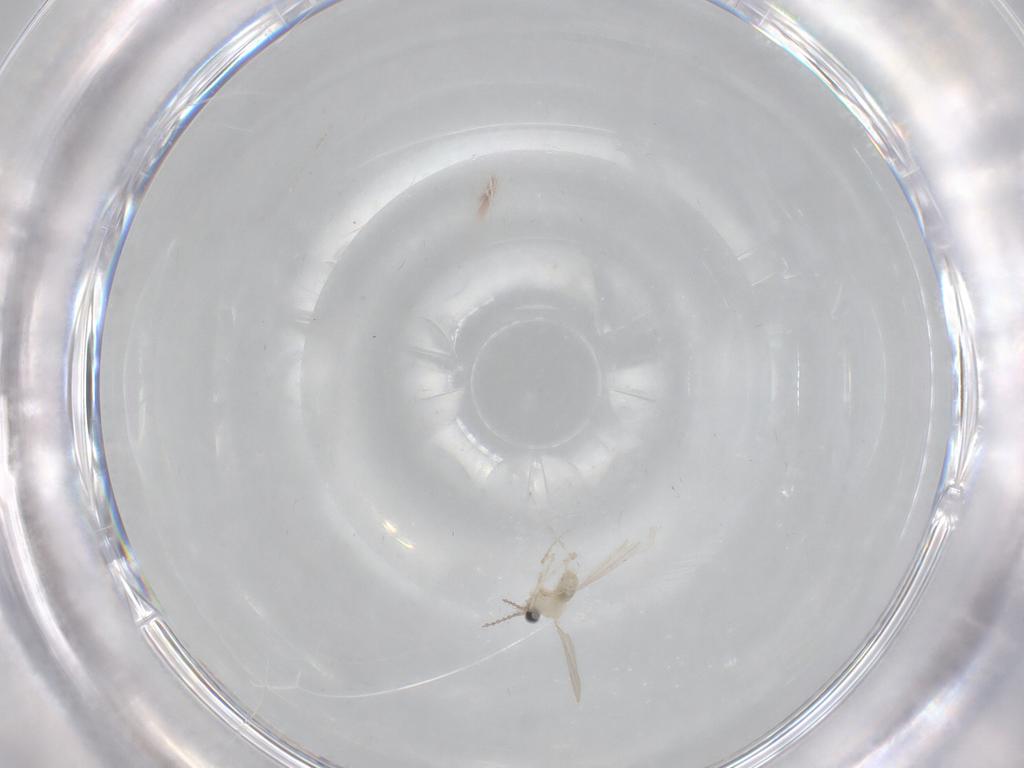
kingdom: Animalia
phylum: Arthropoda
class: Insecta
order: Diptera
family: Cecidomyiidae
